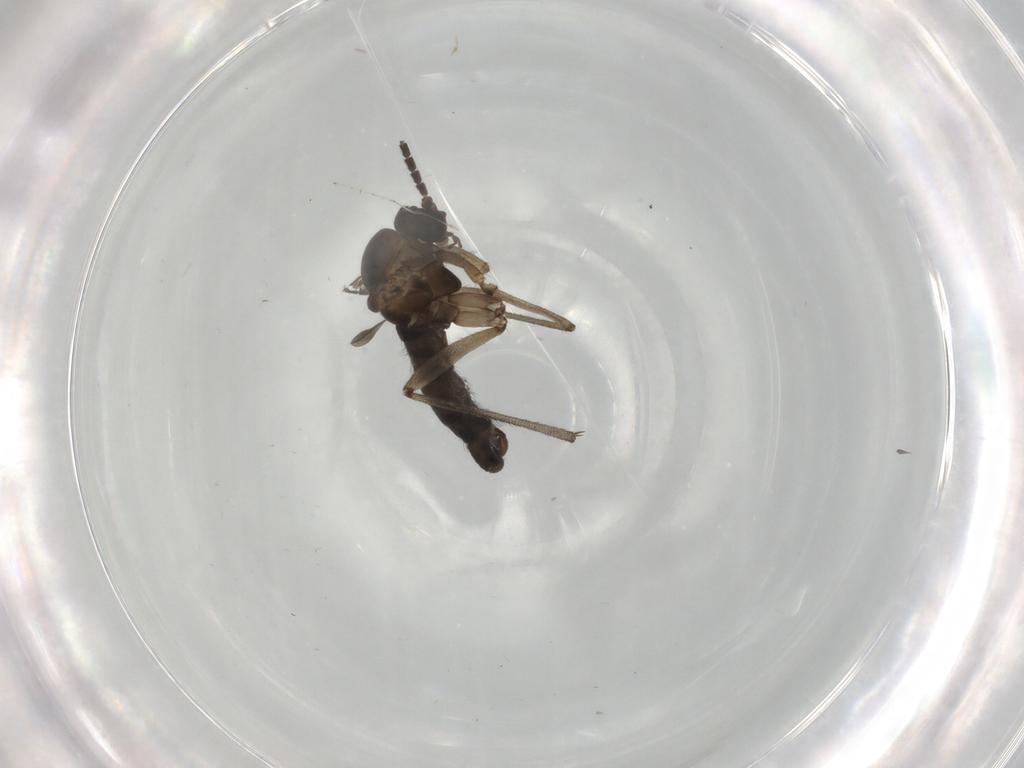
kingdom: Animalia
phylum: Arthropoda
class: Insecta
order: Diptera
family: Sciaridae
